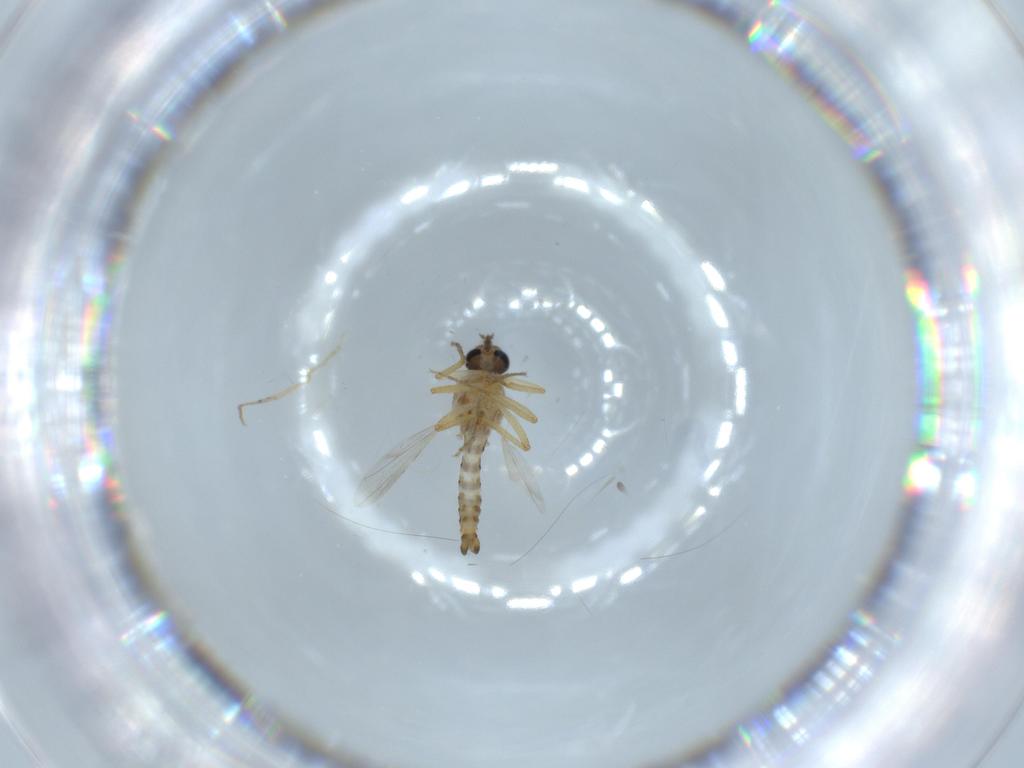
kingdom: Animalia
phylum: Arthropoda
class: Insecta
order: Diptera
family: Ceratopogonidae
